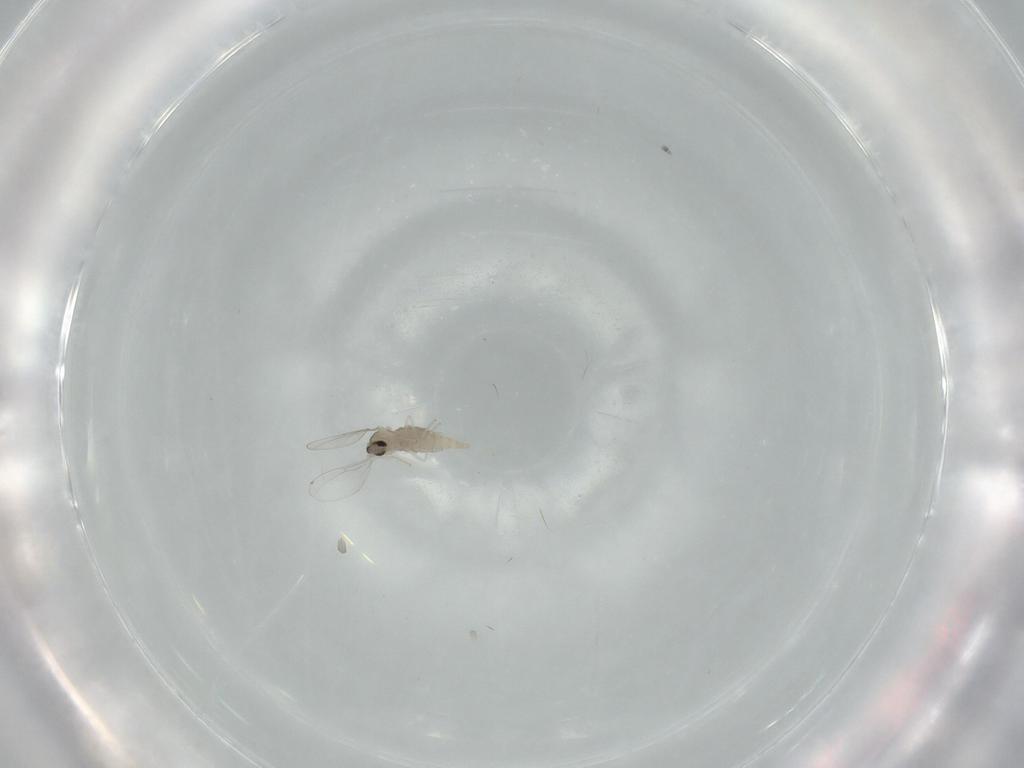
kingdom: Animalia
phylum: Arthropoda
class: Insecta
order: Diptera
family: Cecidomyiidae
